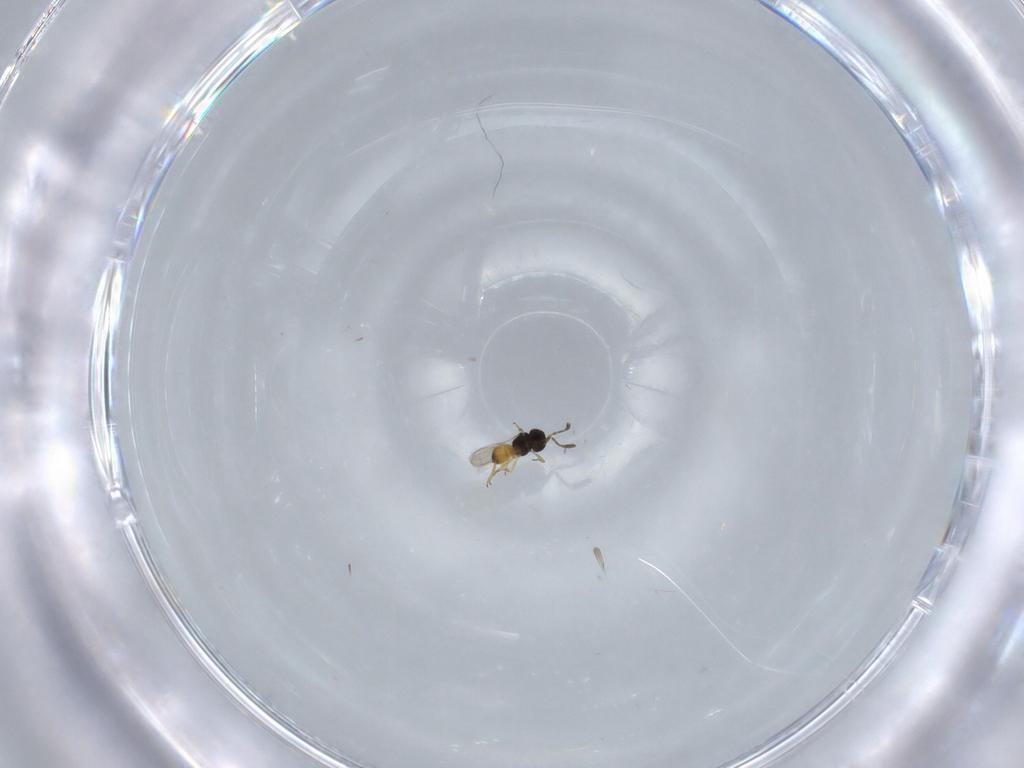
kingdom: Animalia
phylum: Arthropoda
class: Insecta
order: Hymenoptera
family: Scelionidae
